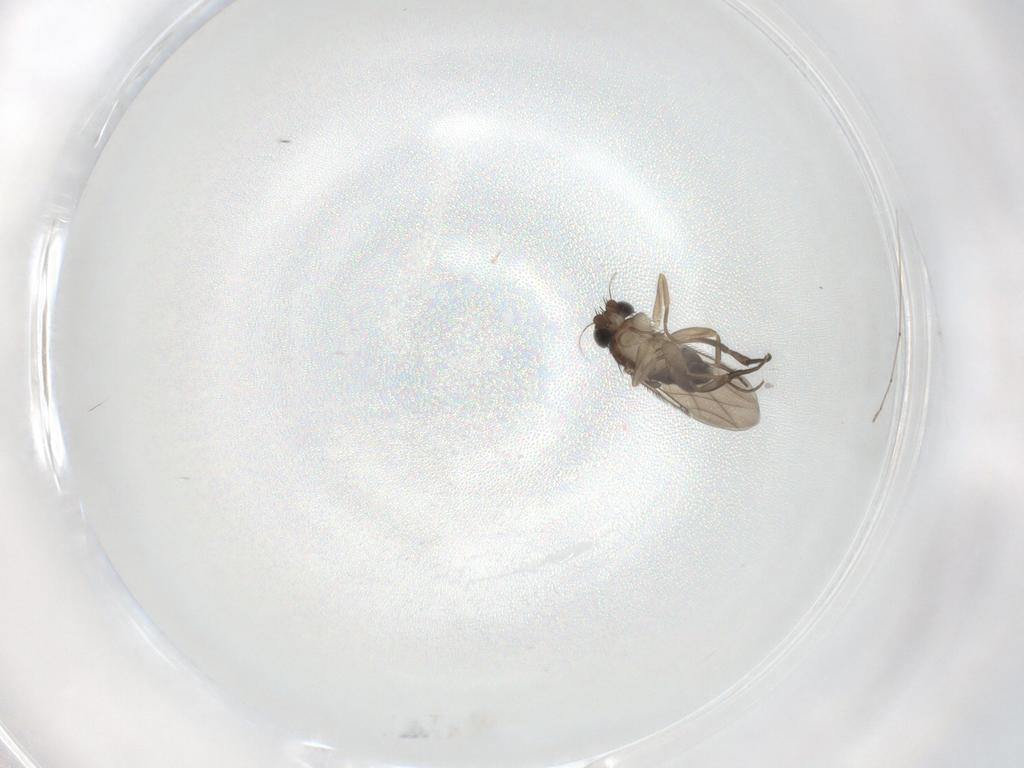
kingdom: Animalia
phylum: Arthropoda
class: Insecta
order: Diptera
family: Phoridae
